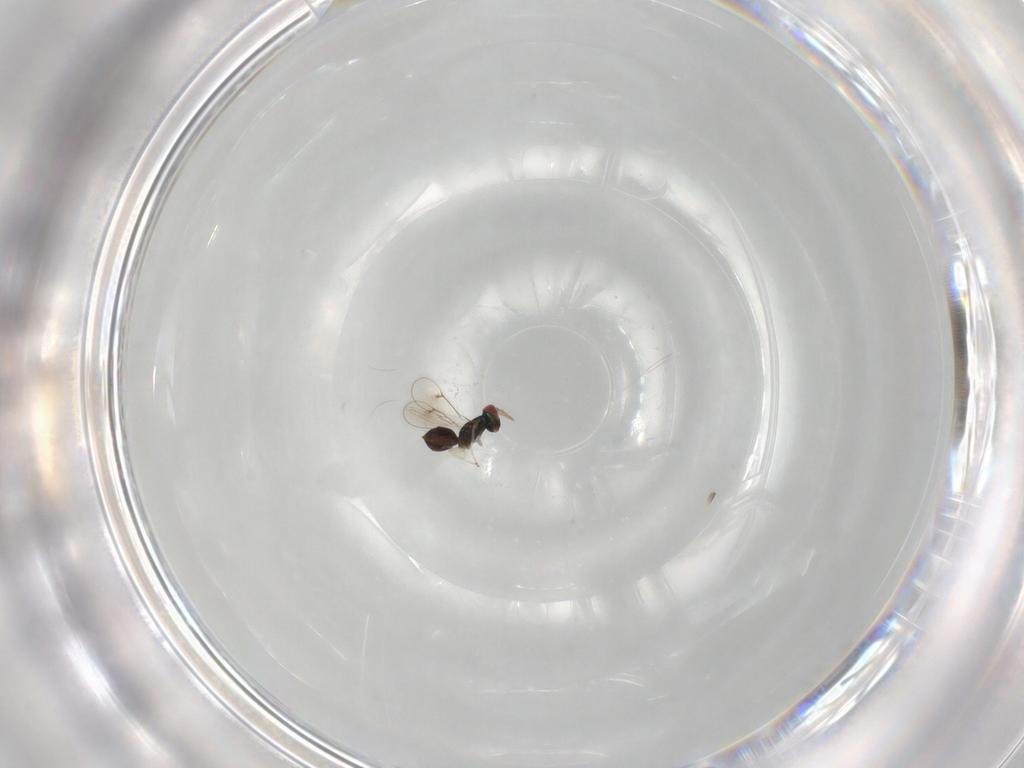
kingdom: Animalia
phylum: Arthropoda
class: Insecta
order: Hymenoptera
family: Eulophidae
